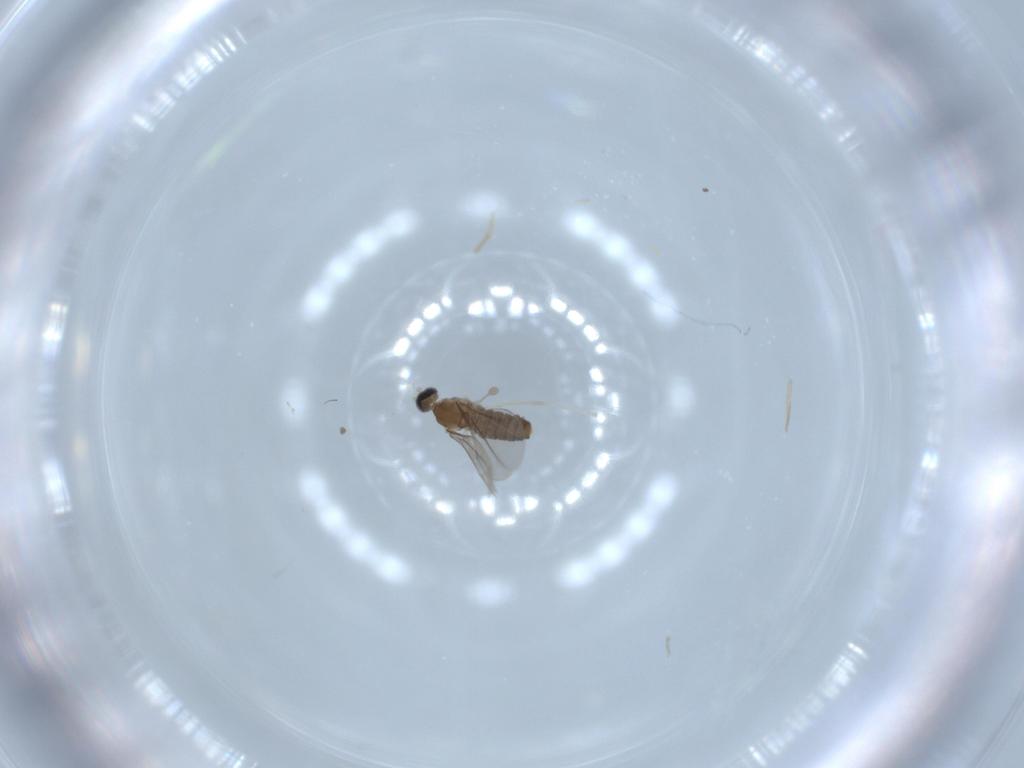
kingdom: Animalia
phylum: Arthropoda
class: Insecta
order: Diptera
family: Cecidomyiidae
